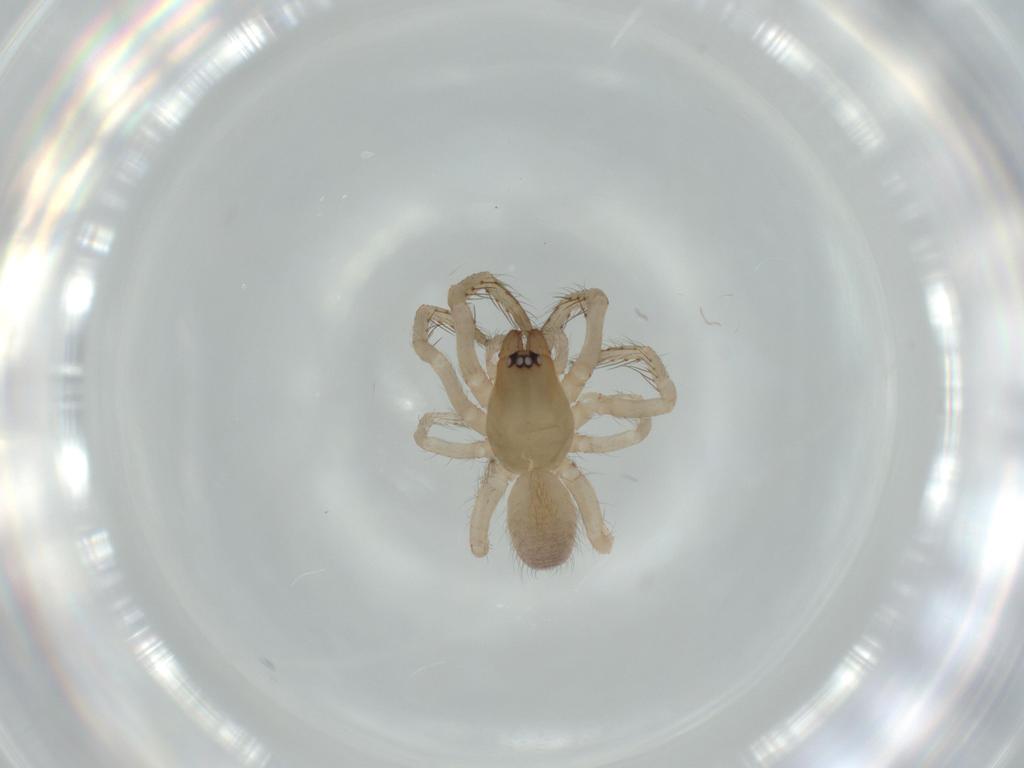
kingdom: Animalia
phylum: Arthropoda
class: Arachnida
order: Araneae
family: Segestriidae
